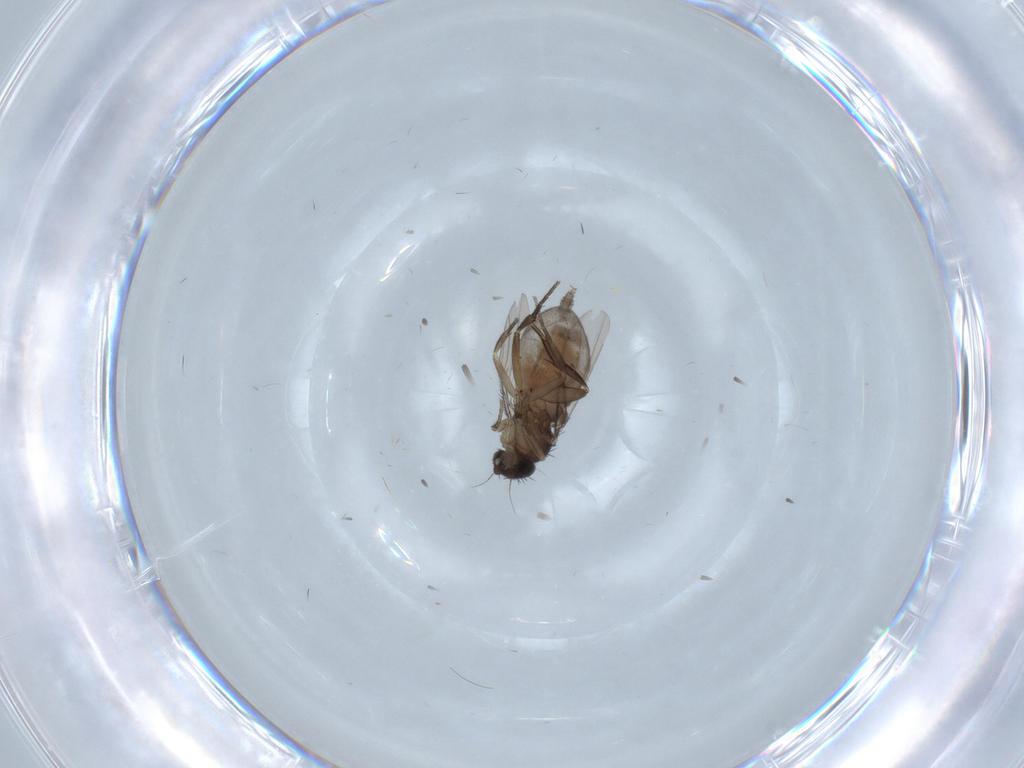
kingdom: Animalia
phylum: Arthropoda
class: Insecta
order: Diptera
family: Phoridae
